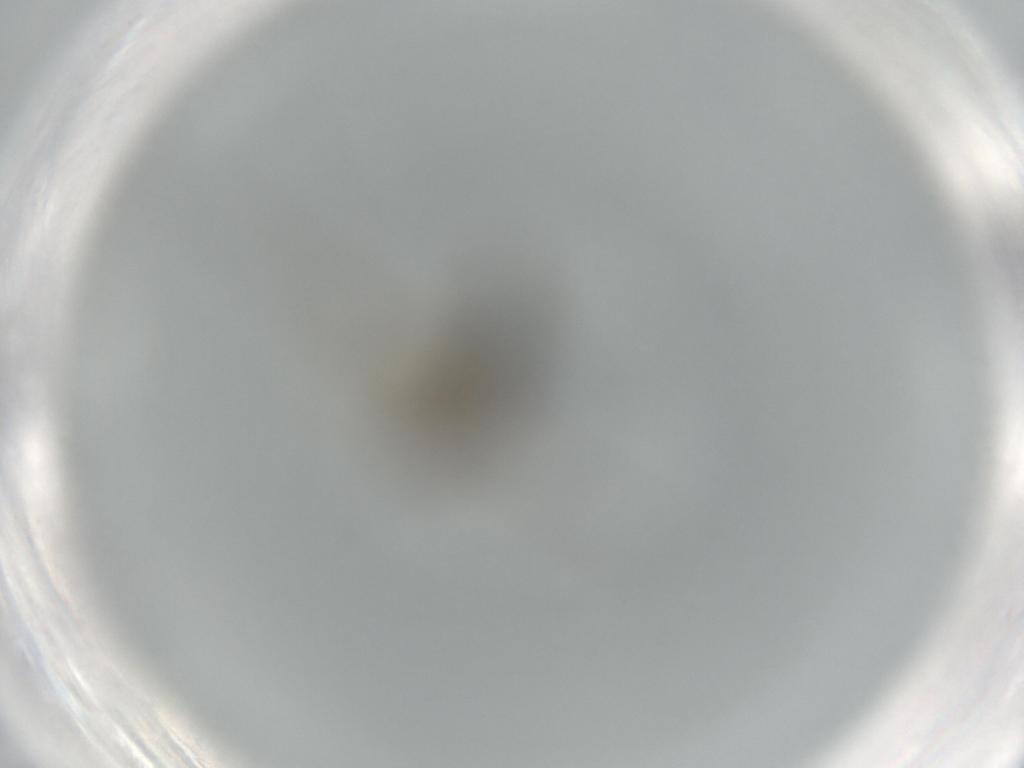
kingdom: Animalia
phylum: Arthropoda
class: Insecta
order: Diptera
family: Sciaridae
